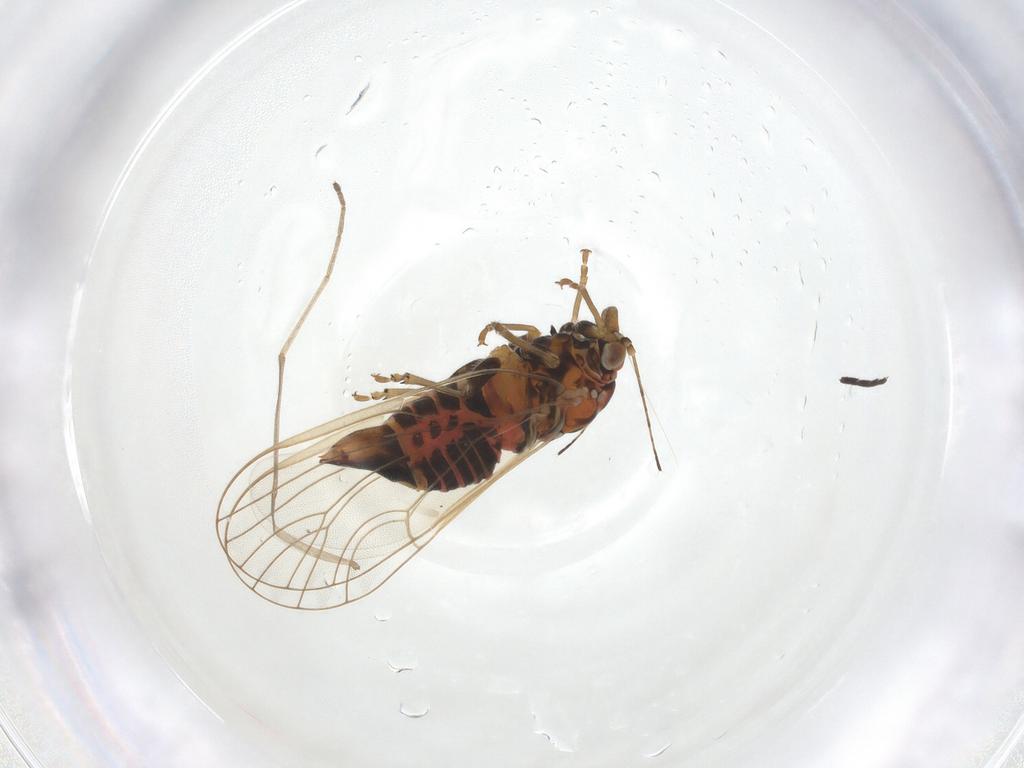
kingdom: Animalia
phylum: Arthropoda
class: Insecta
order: Hemiptera
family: Psyllidae
